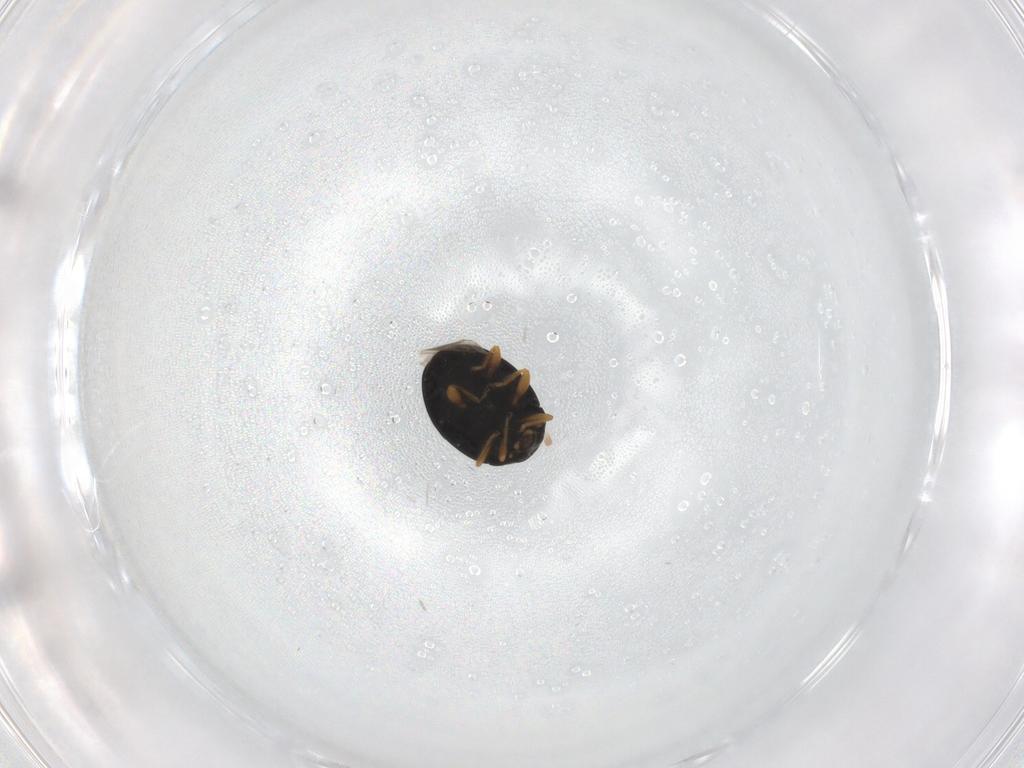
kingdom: Animalia
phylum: Arthropoda
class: Insecta
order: Coleoptera
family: Coccinellidae
